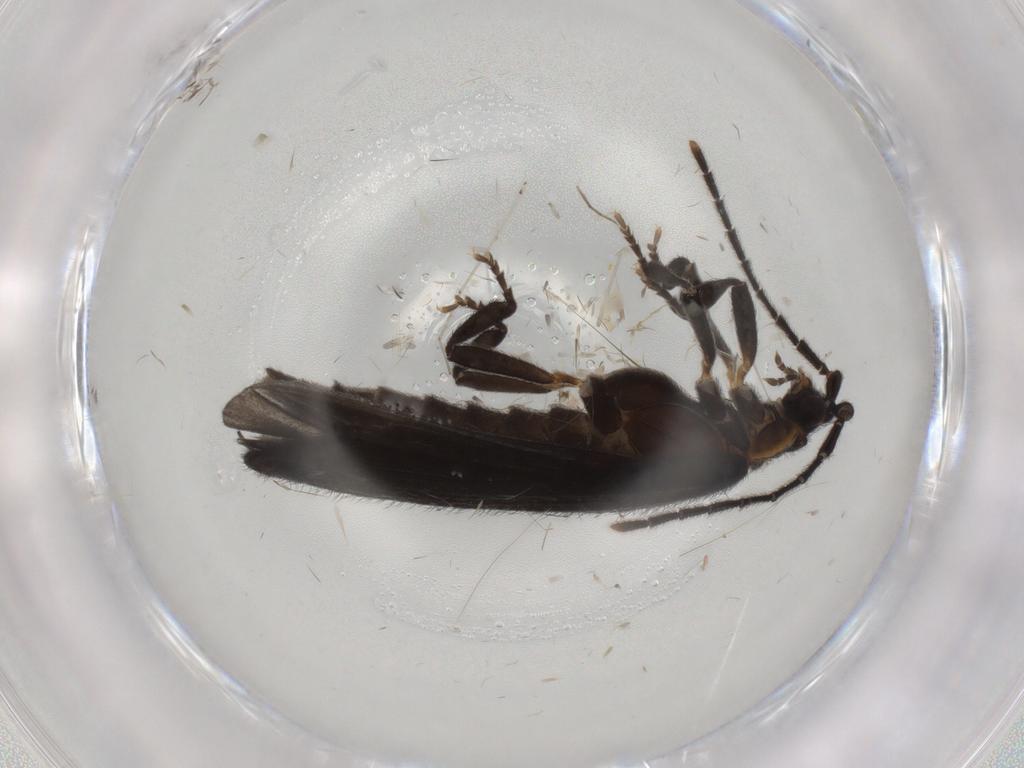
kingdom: Animalia
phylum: Arthropoda
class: Insecta
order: Coleoptera
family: Lycidae
